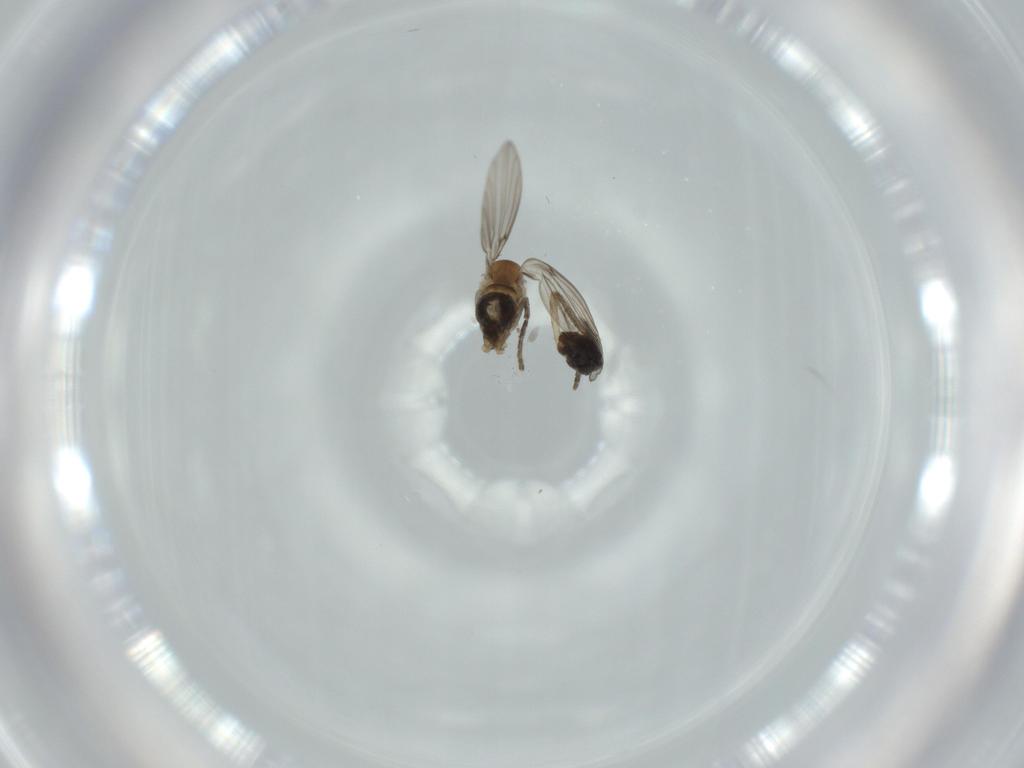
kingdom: Animalia
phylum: Arthropoda
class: Insecta
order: Diptera
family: Psychodidae
